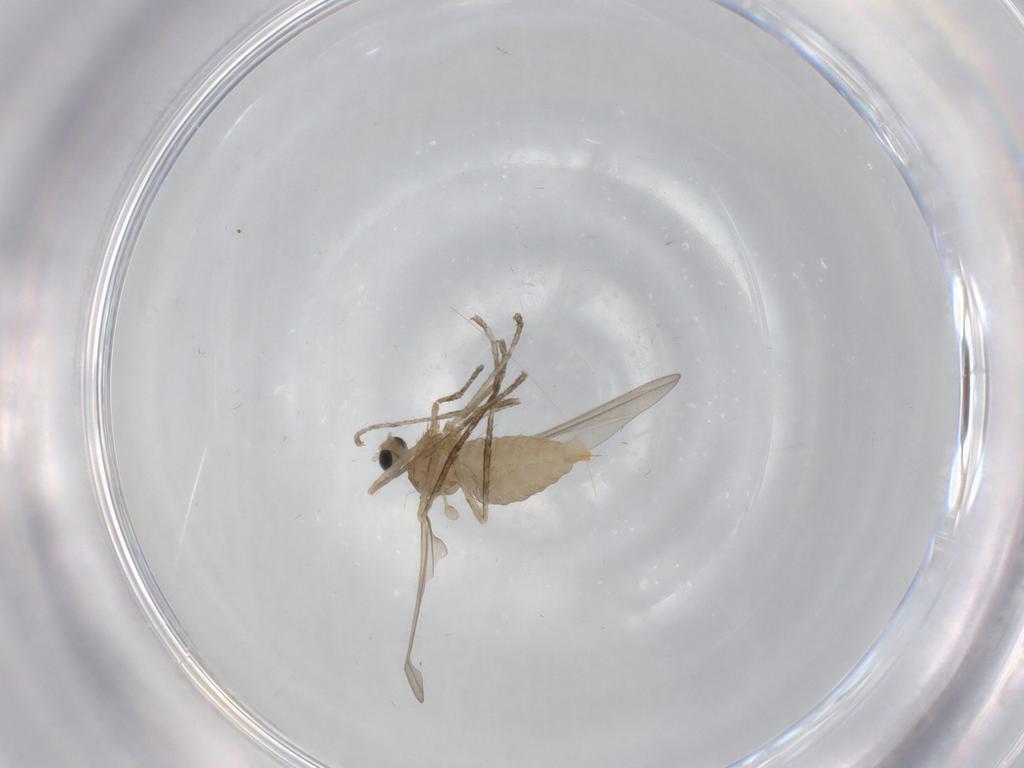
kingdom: Animalia
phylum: Arthropoda
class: Insecta
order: Diptera
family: Cecidomyiidae
